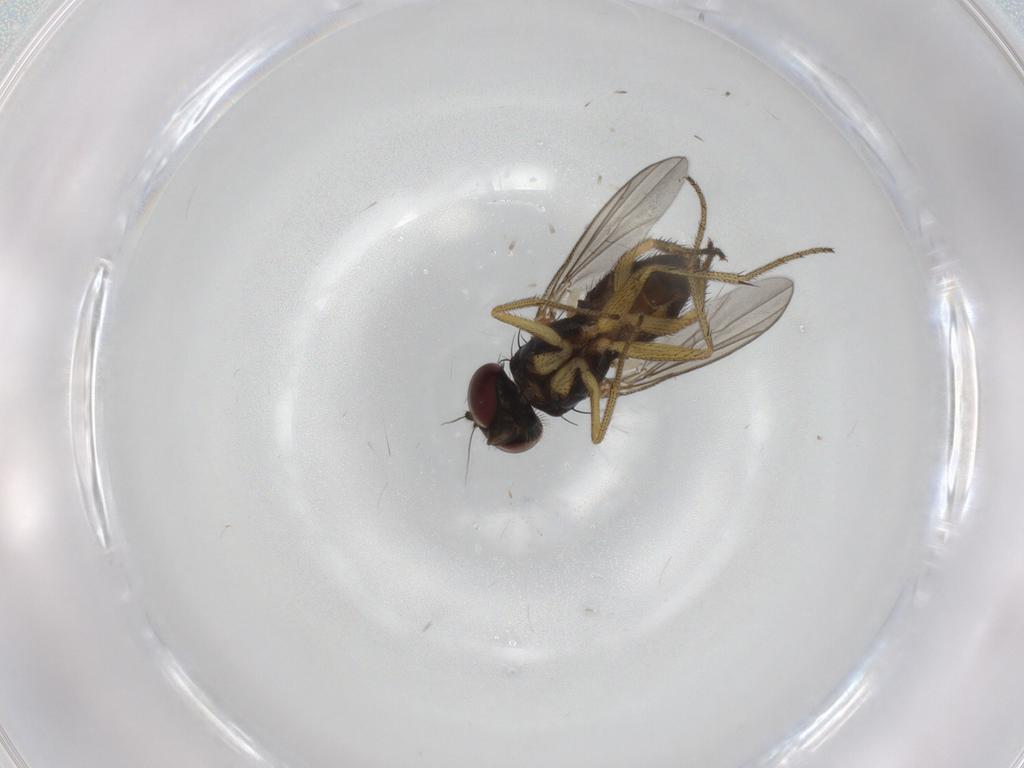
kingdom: Animalia
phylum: Arthropoda
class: Insecta
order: Diptera
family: Dolichopodidae
